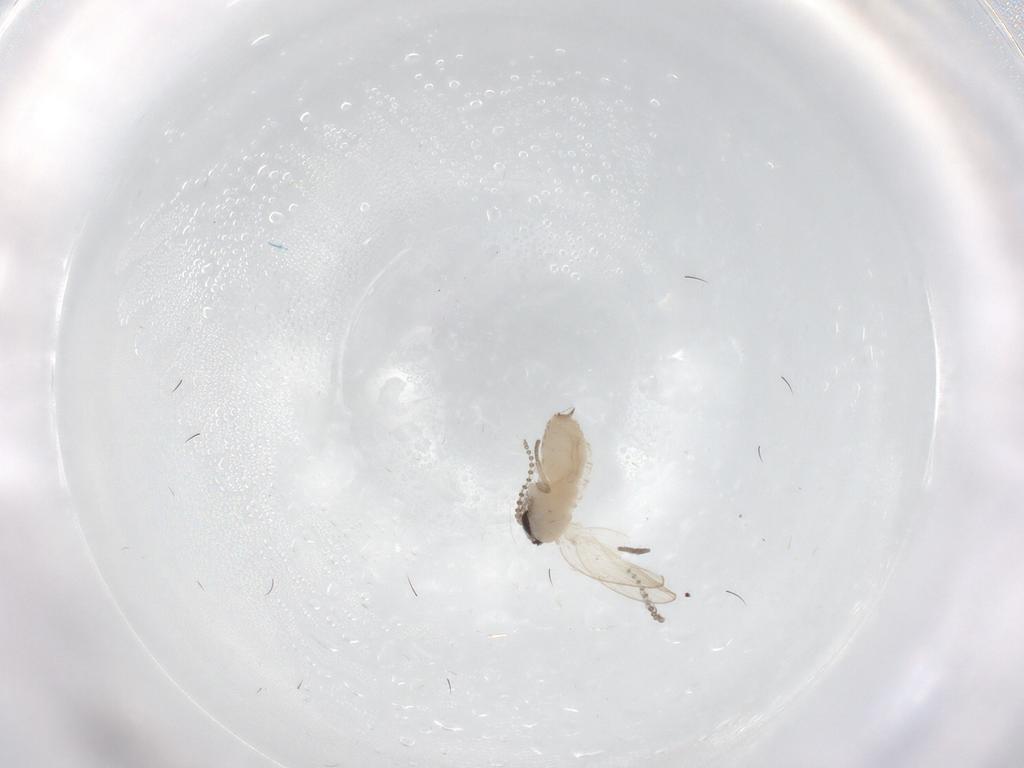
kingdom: Animalia
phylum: Arthropoda
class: Insecta
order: Diptera
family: Psychodidae
